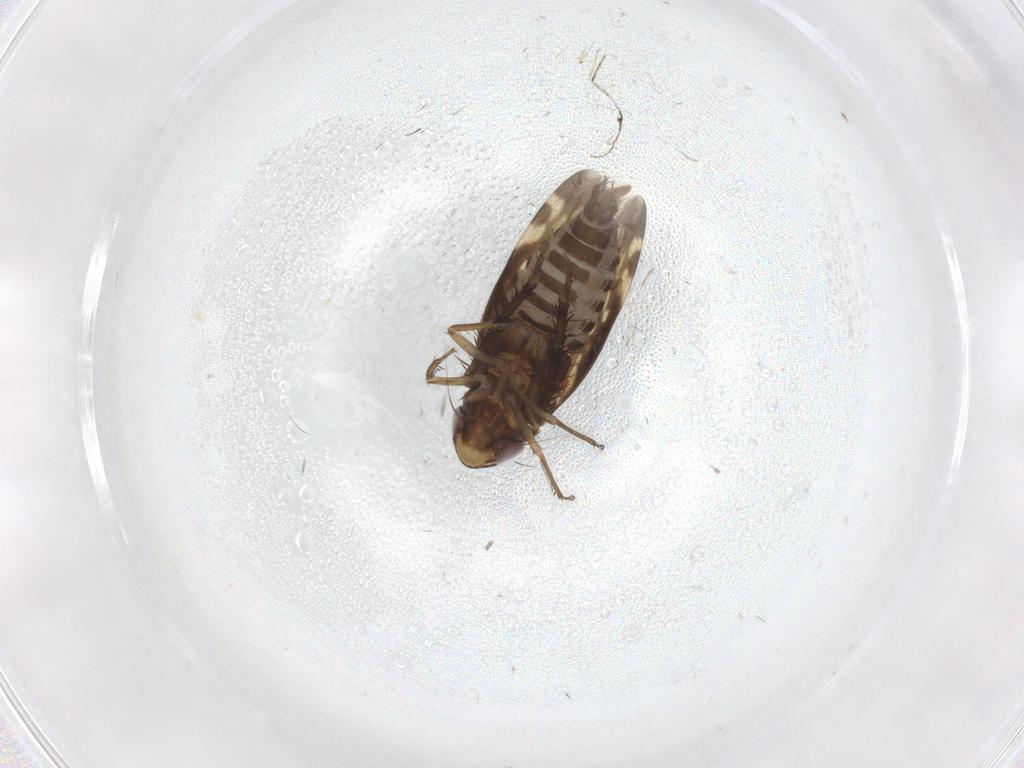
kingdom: Animalia
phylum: Arthropoda
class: Insecta
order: Hemiptera
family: Cicadellidae
